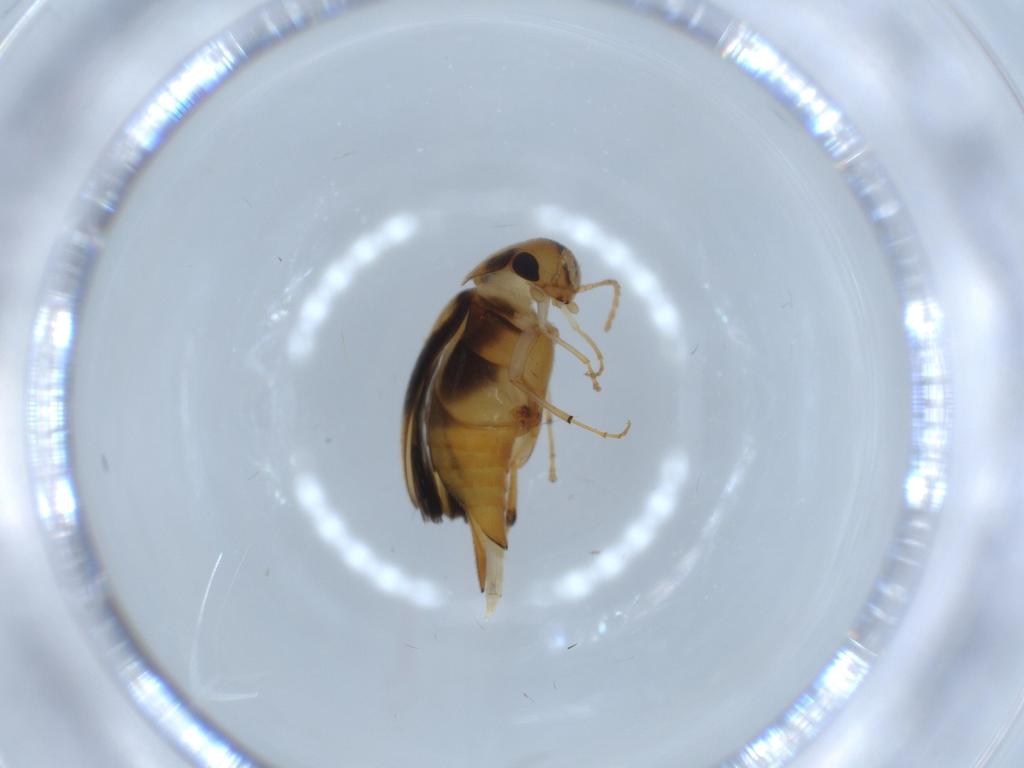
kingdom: Animalia
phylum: Arthropoda
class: Insecta
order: Coleoptera
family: Mordellidae
